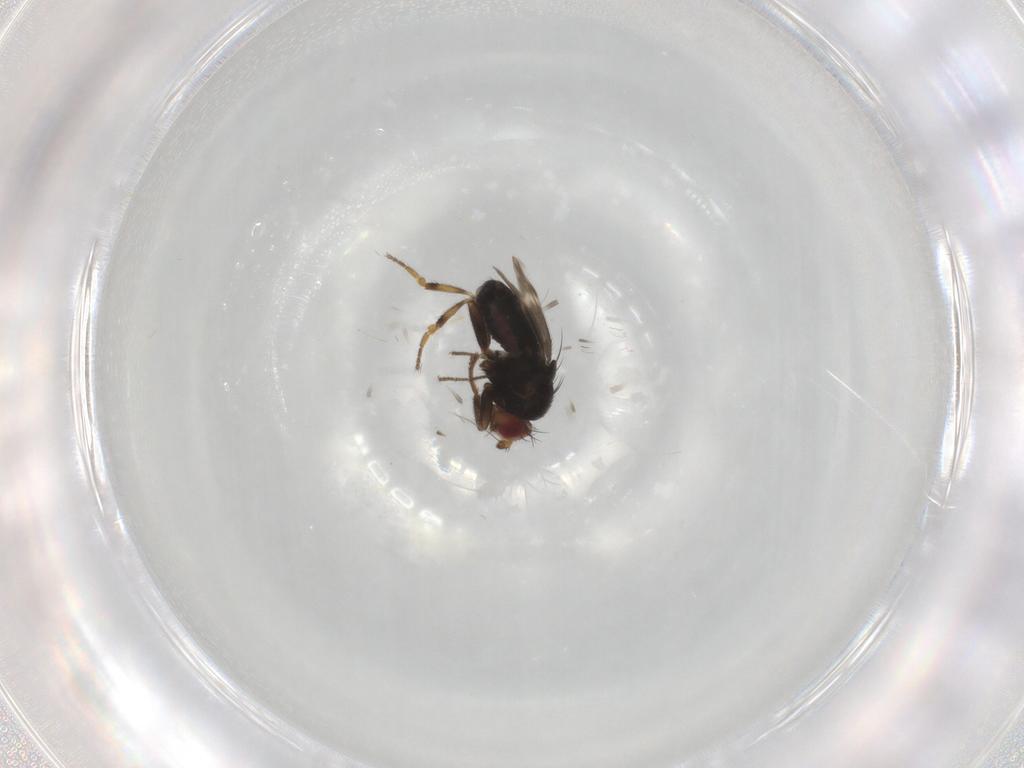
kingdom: Animalia
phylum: Arthropoda
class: Insecta
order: Diptera
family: Sphaeroceridae
